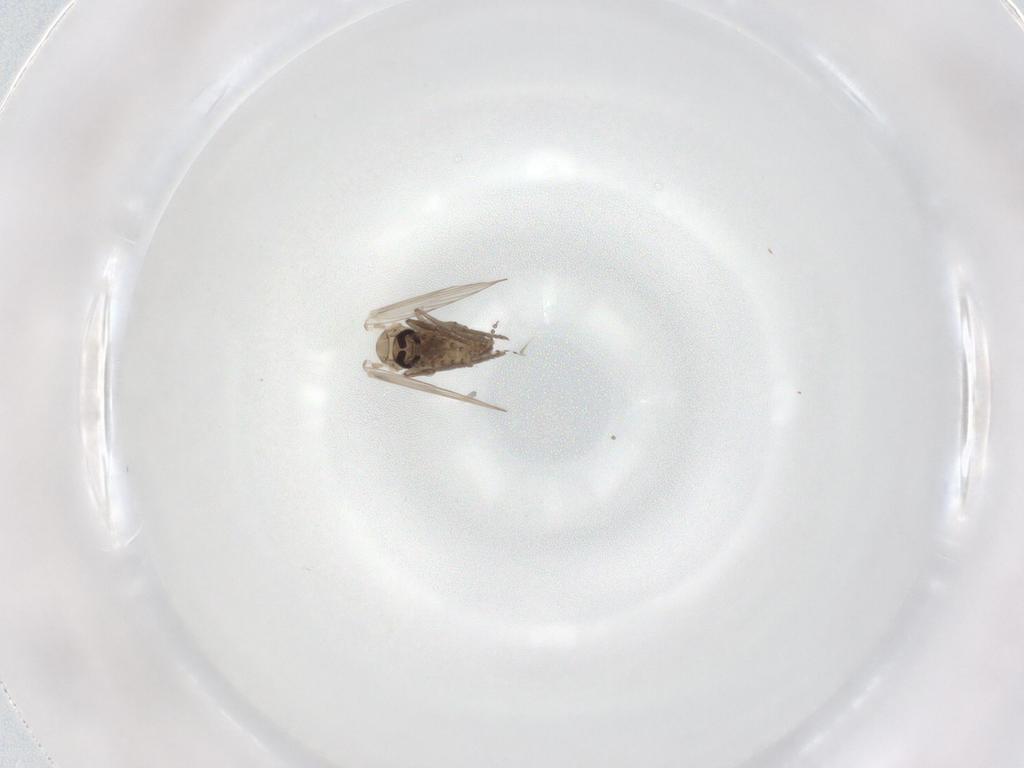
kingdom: Animalia
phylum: Arthropoda
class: Insecta
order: Diptera
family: Psychodidae
